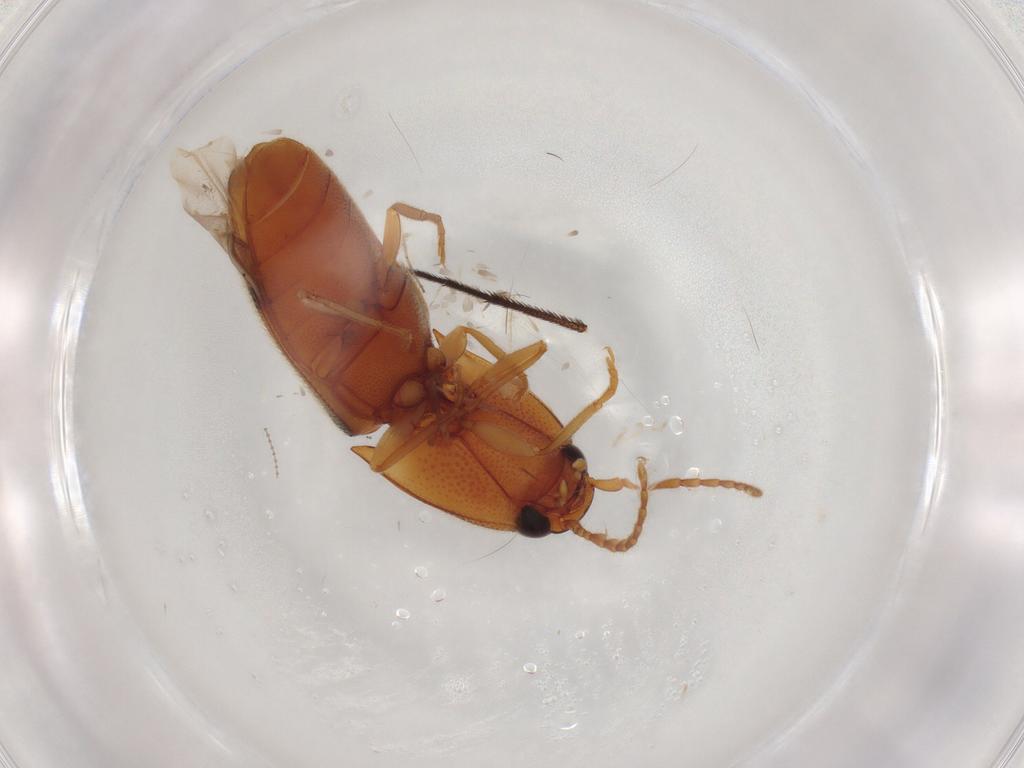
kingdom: Animalia
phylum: Arthropoda
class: Insecta
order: Coleoptera
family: Elateridae
